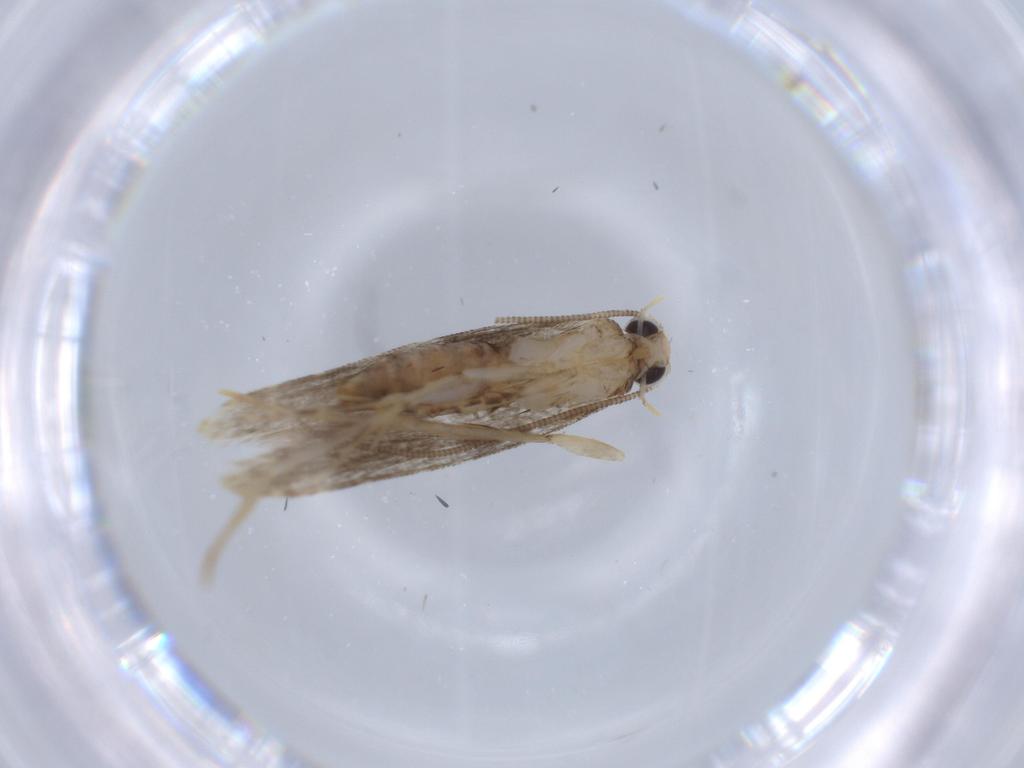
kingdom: Animalia
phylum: Arthropoda
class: Insecta
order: Lepidoptera
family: Tineidae
